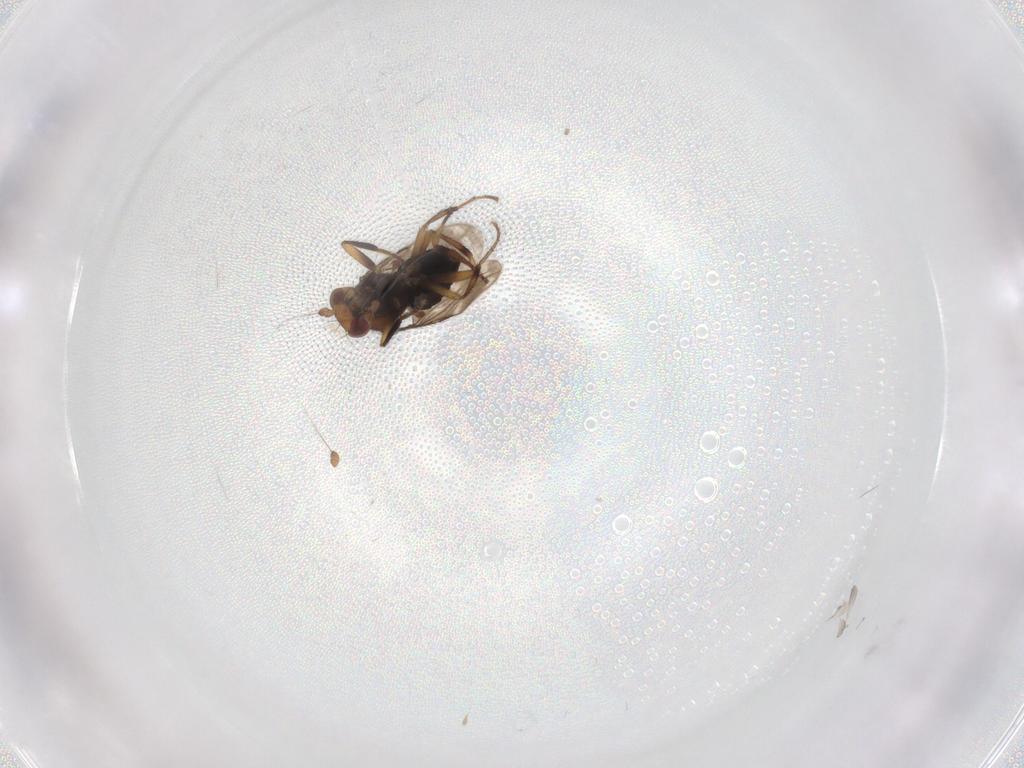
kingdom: Animalia
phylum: Arthropoda
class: Insecta
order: Diptera
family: Sphaeroceridae
